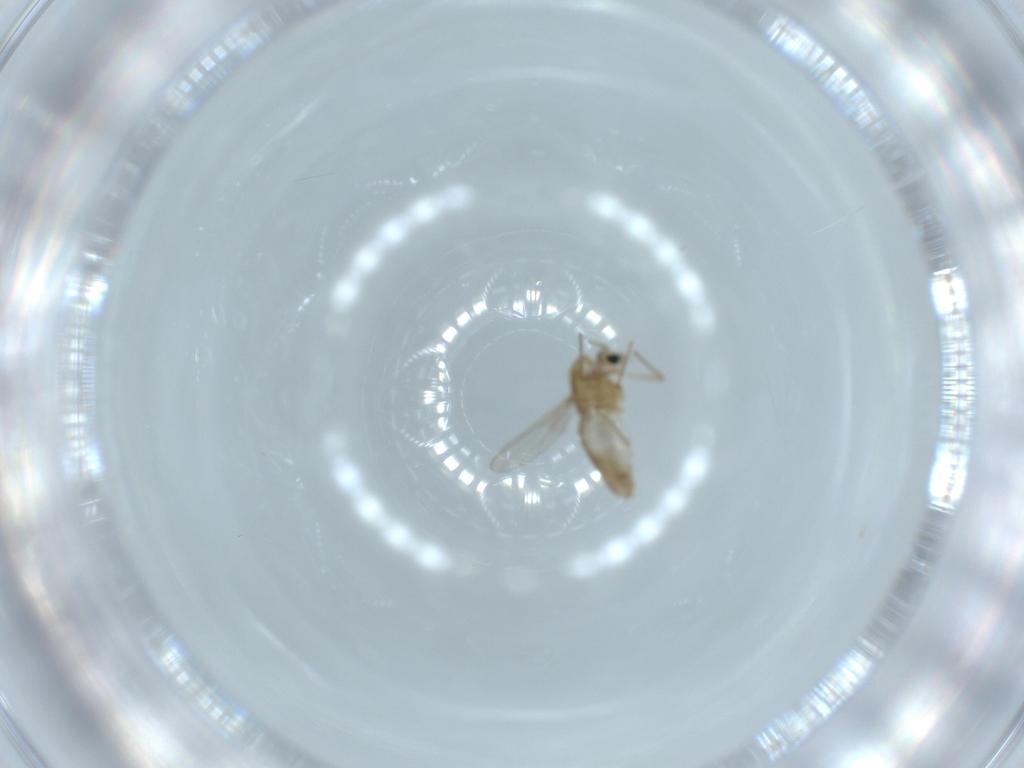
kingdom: Animalia
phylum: Arthropoda
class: Insecta
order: Diptera
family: Chironomidae
